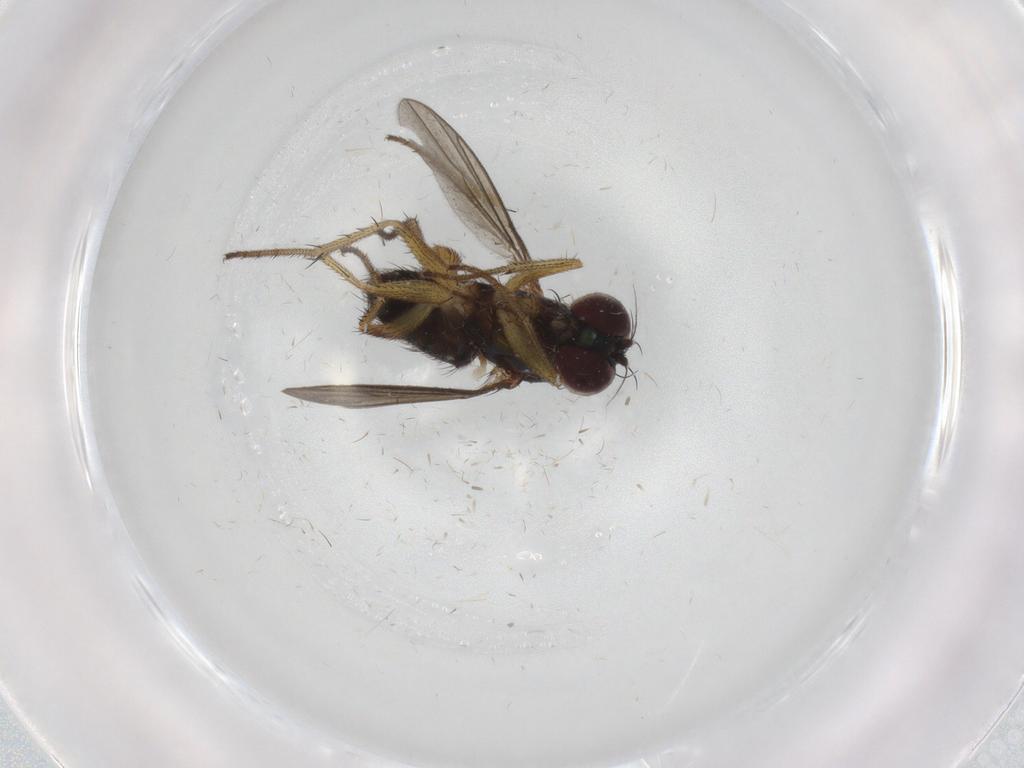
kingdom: Animalia
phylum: Arthropoda
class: Insecta
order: Diptera
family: Dolichopodidae
